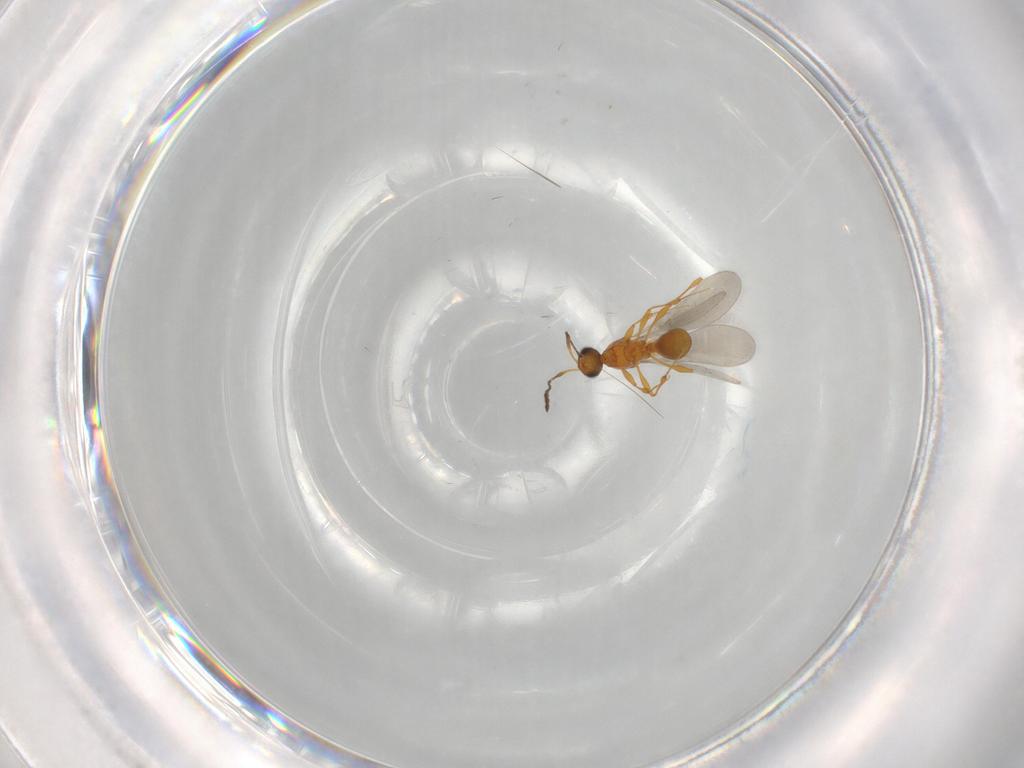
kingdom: Animalia
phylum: Arthropoda
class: Insecta
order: Hymenoptera
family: Platygastridae
